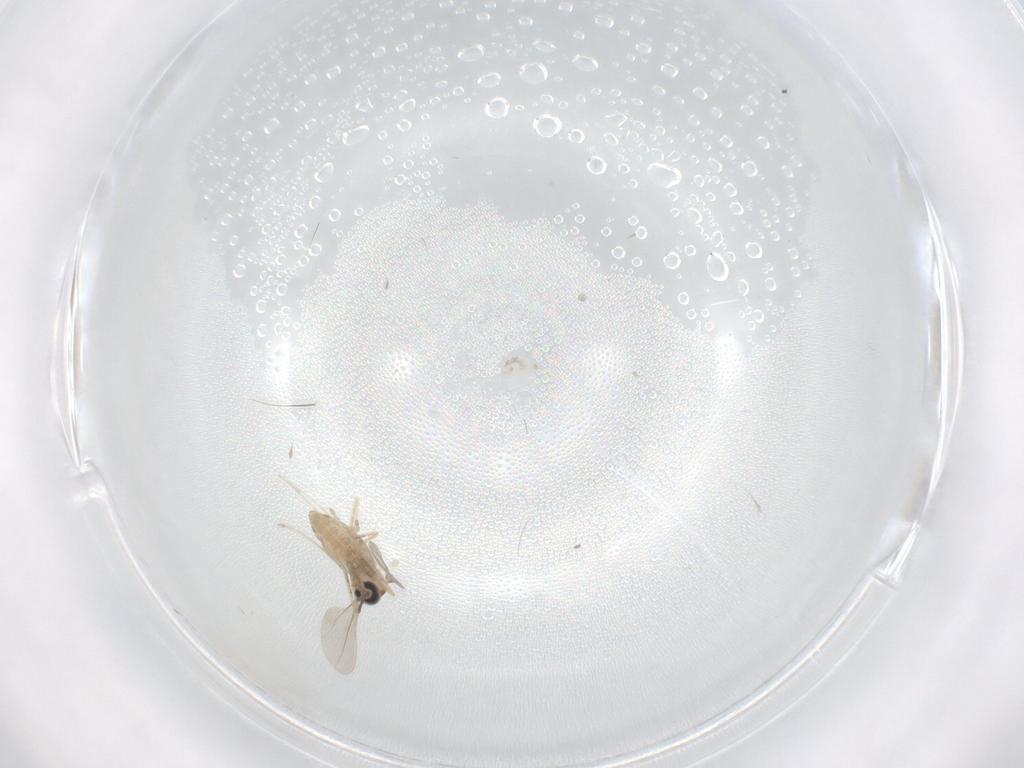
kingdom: Animalia
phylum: Arthropoda
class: Insecta
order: Diptera
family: Cecidomyiidae
